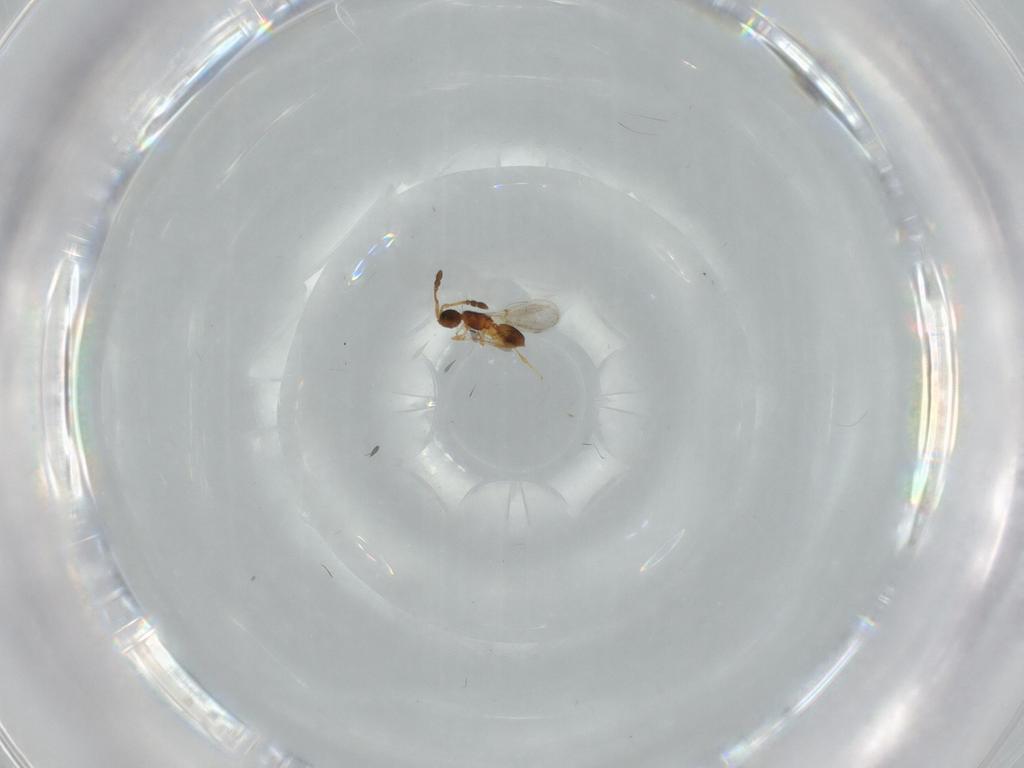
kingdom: Animalia
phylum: Arthropoda
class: Insecta
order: Hymenoptera
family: Diapriidae
